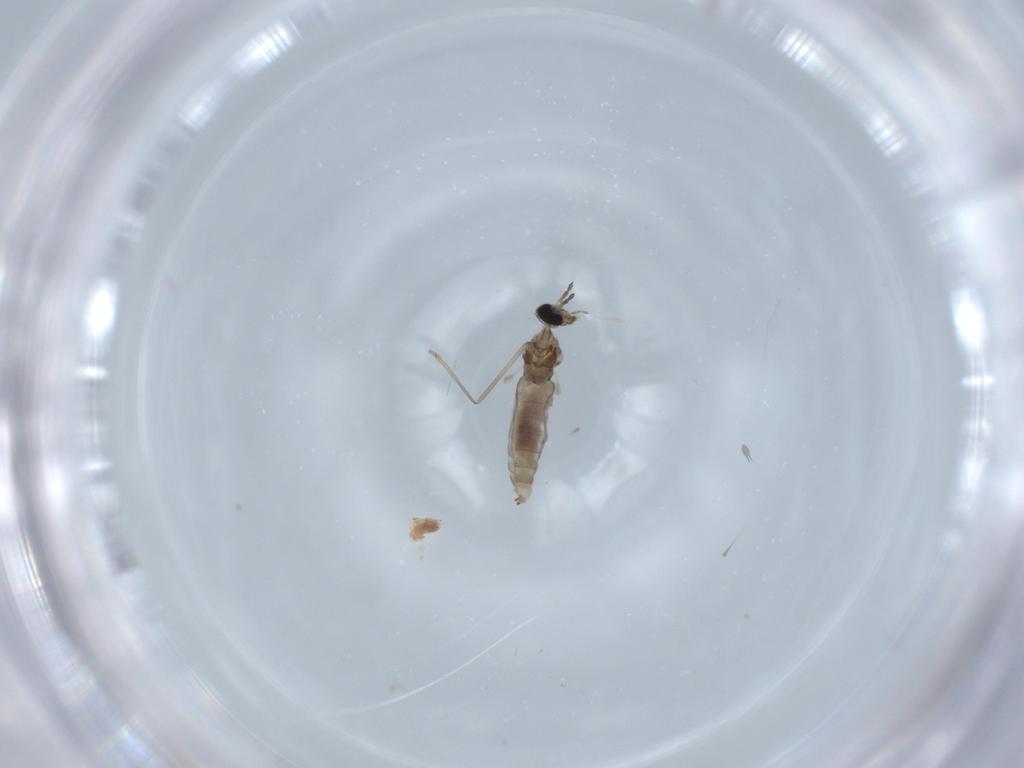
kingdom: Animalia
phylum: Arthropoda
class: Insecta
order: Diptera
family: Cecidomyiidae
